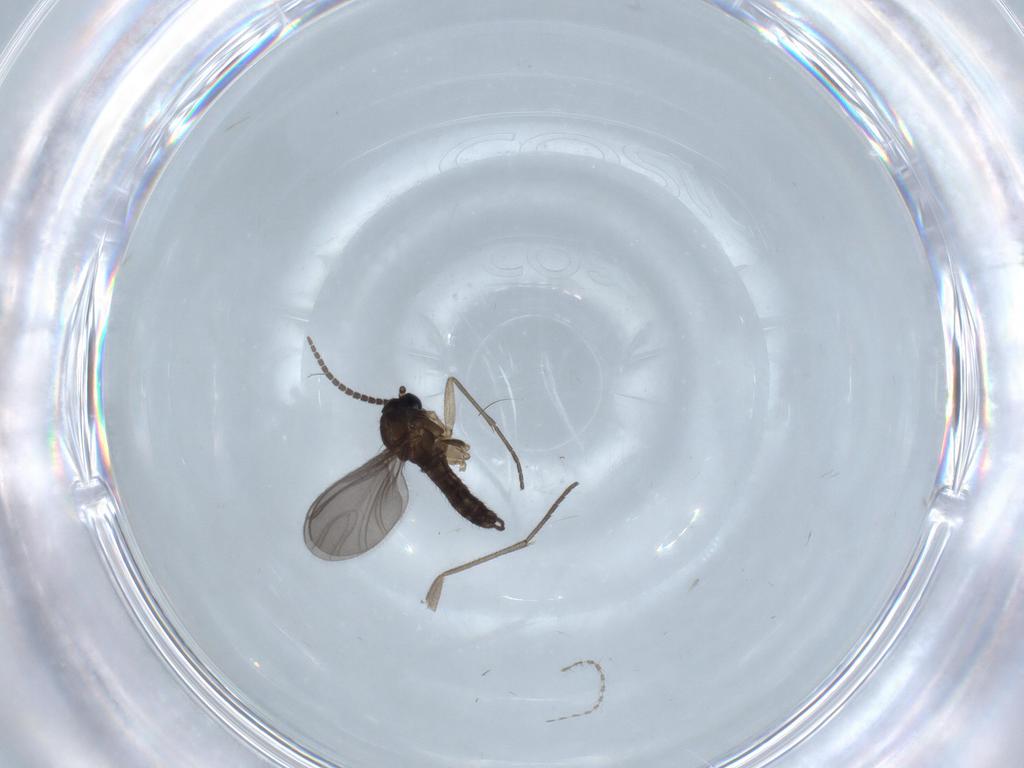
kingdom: Animalia
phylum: Arthropoda
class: Insecta
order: Diptera
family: Sciaridae
